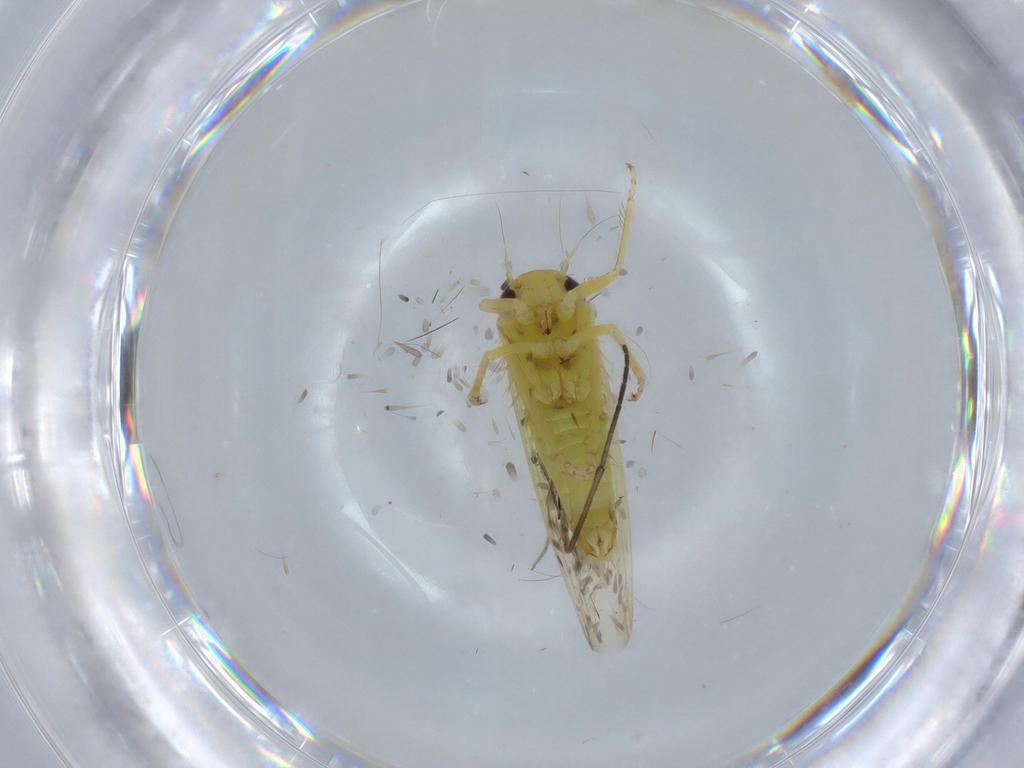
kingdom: Animalia
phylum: Arthropoda
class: Insecta
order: Hemiptera
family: Cicadellidae
